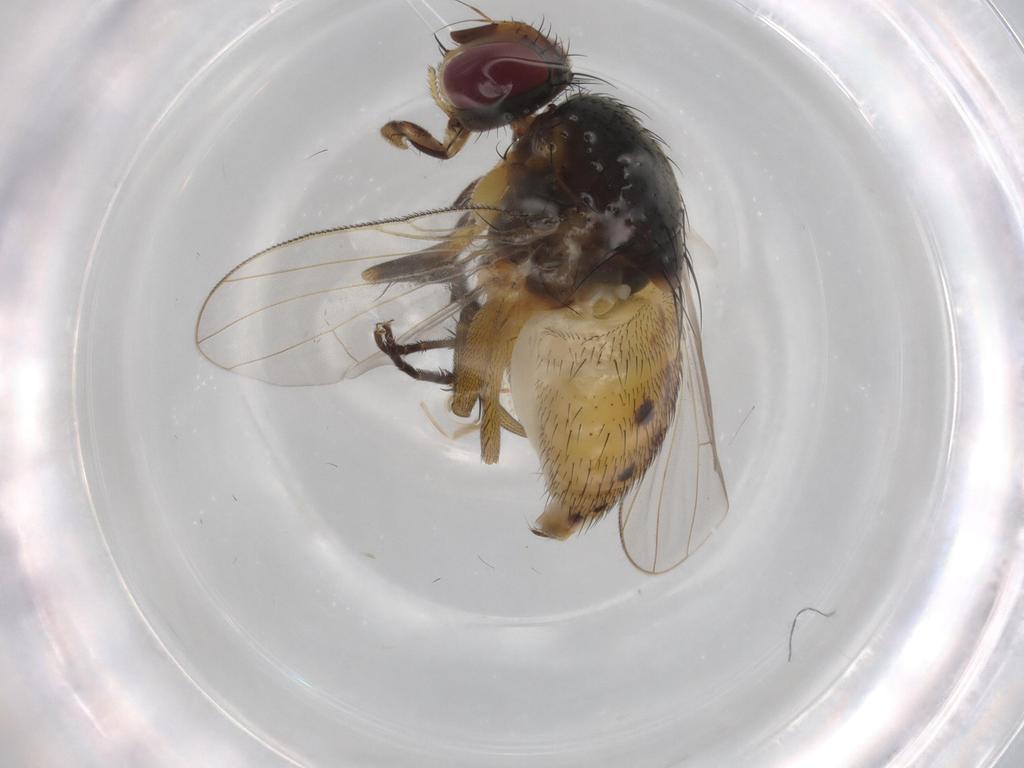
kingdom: Animalia
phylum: Arthropoda
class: Insecta
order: Diptera
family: Muscidae
